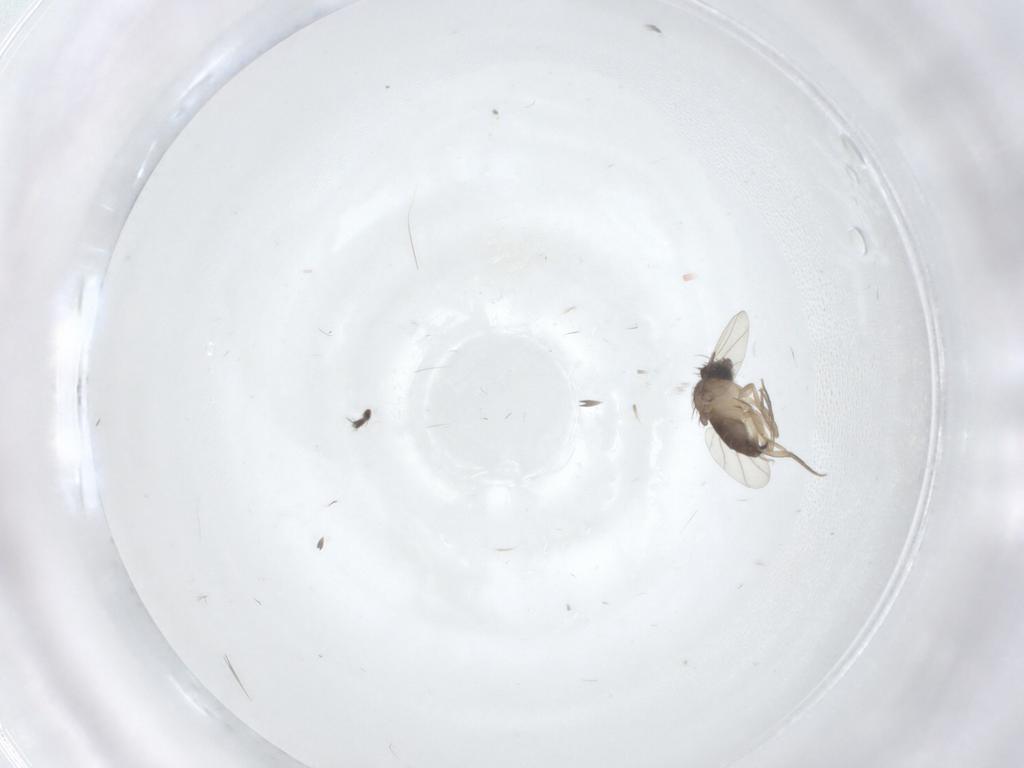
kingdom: Animalia
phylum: Arthropoda
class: Insecta
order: Diptera
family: Phoridae
